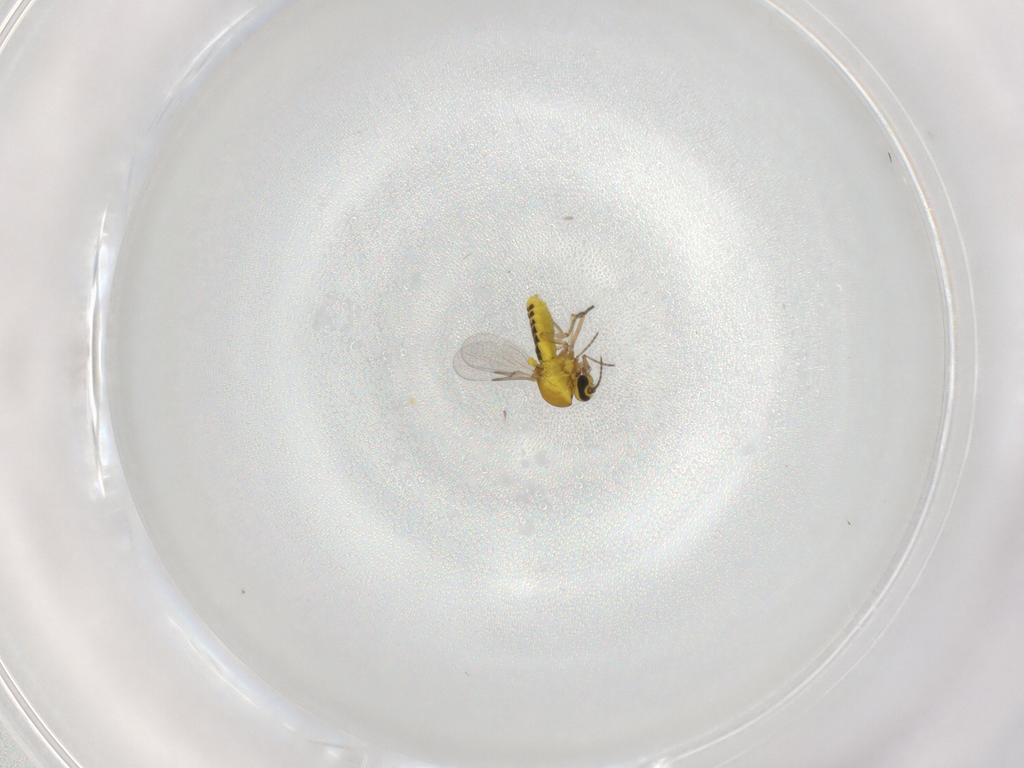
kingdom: Animalia
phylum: Arthropoda
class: Insecta
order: Diptera
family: Ceratopogonidae
